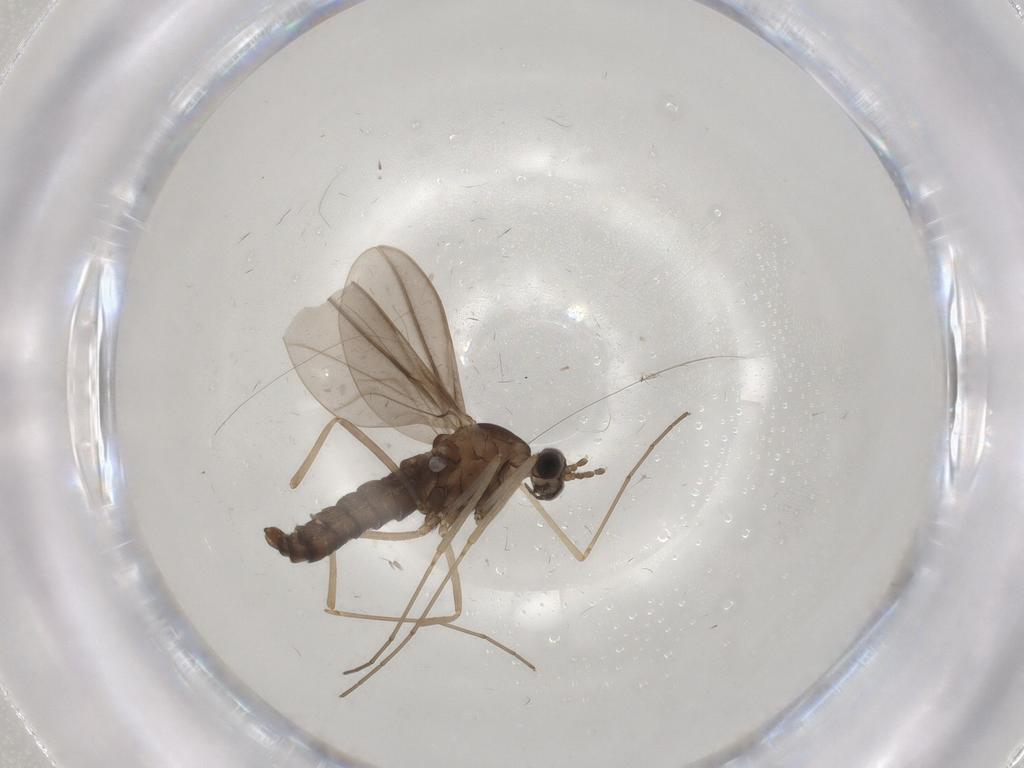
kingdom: Animalia
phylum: Arthropoda
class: Insecta
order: Diptera
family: Cecidomyiidae
